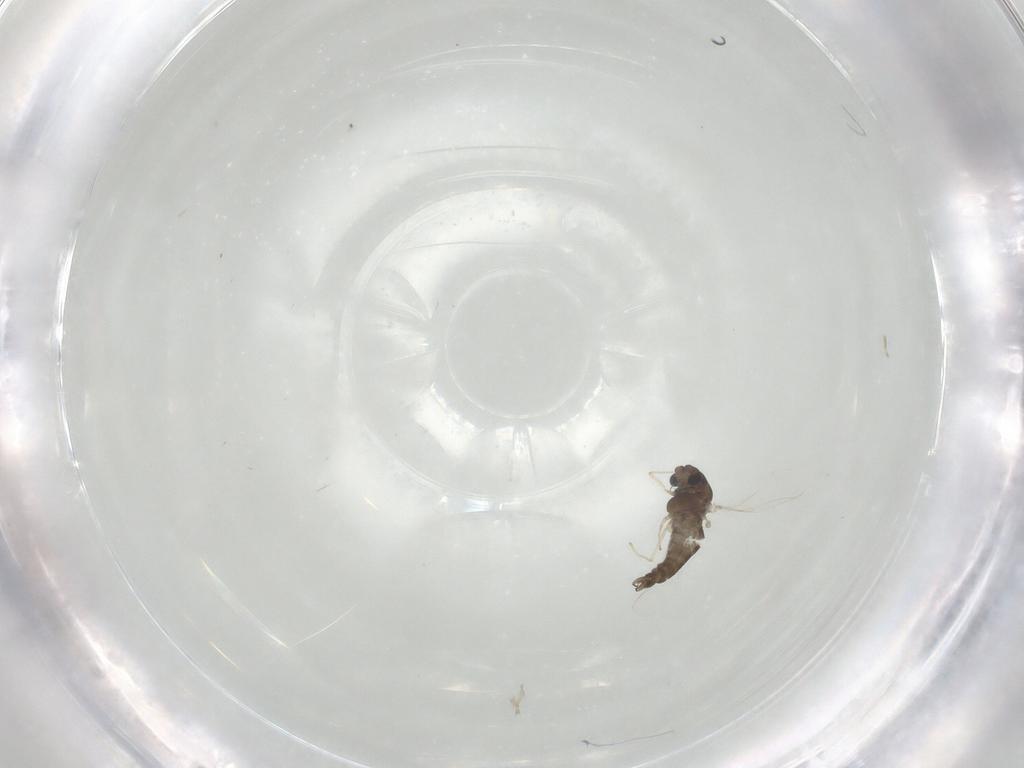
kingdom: Animalia
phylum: Arthropoda
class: Insecta
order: Diptera
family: Chironomidae
